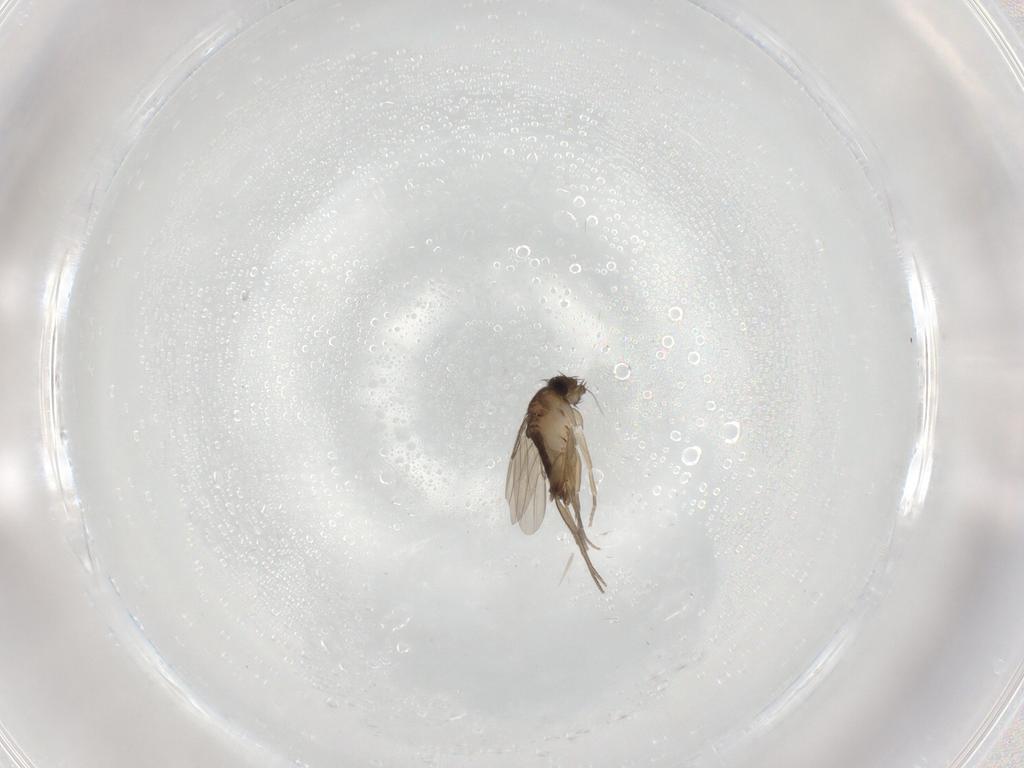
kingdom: Animalia
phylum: Arthropoda
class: Insecta
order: Diptera
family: Phoridae
